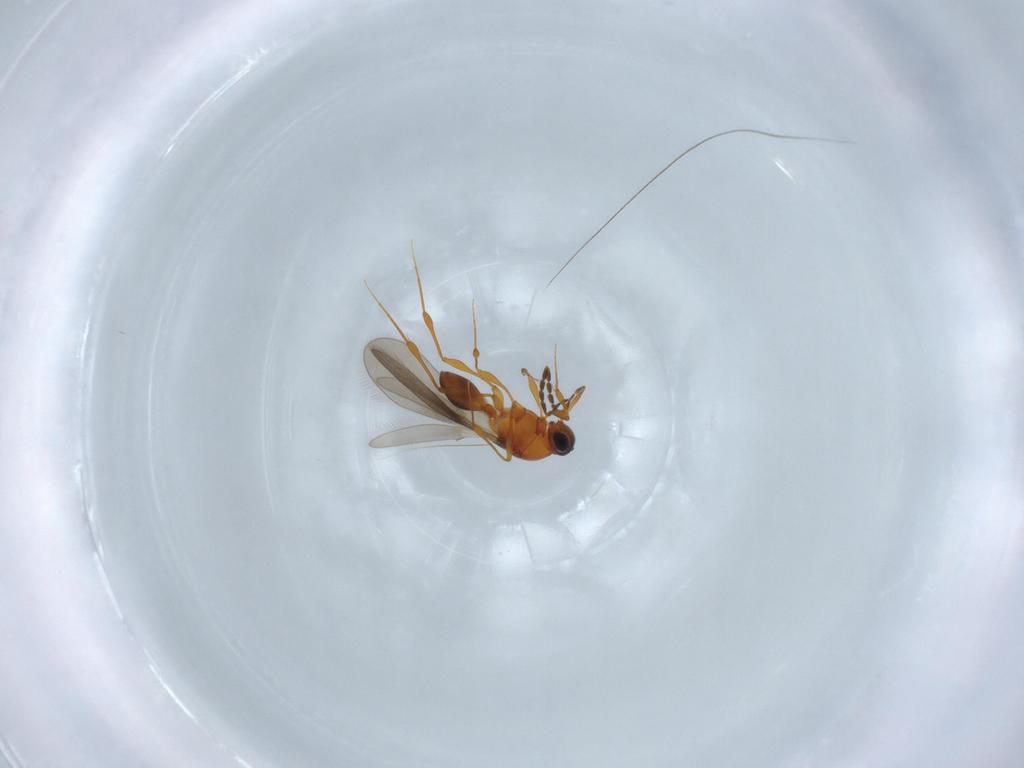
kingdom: Animalia
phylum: Arthropoda
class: Insecta
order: Hymenoptera
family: Platygastridae
